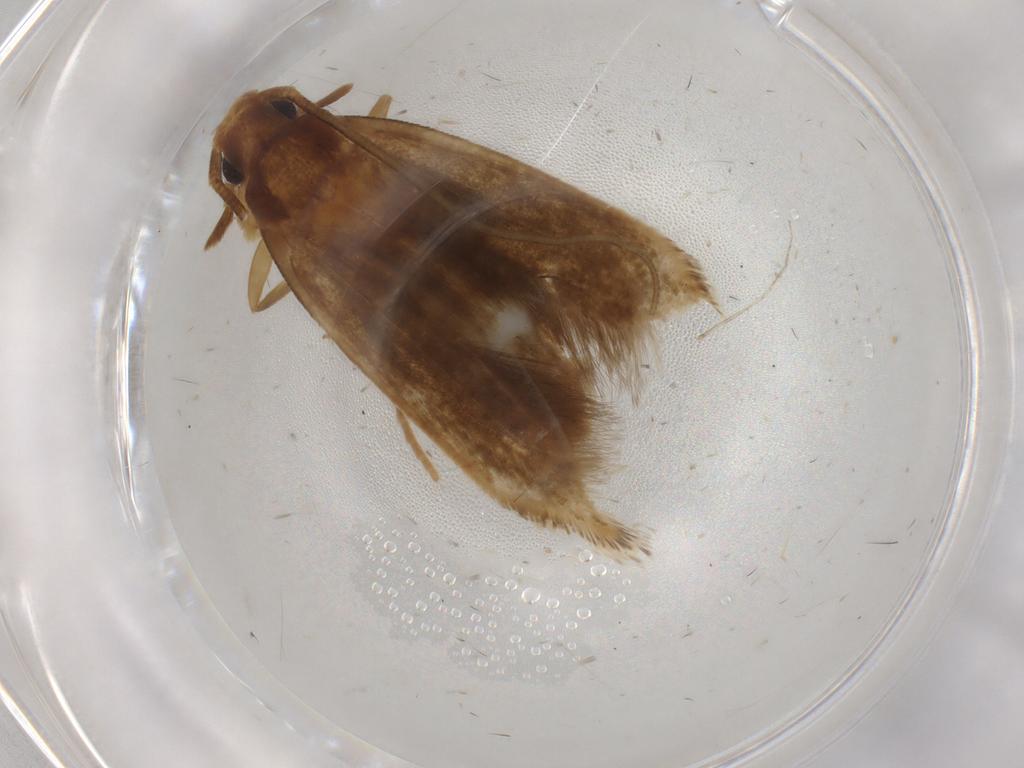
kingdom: Animalia
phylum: Arthropoda
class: Insecta
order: Lepidoptera
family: Tineidae
